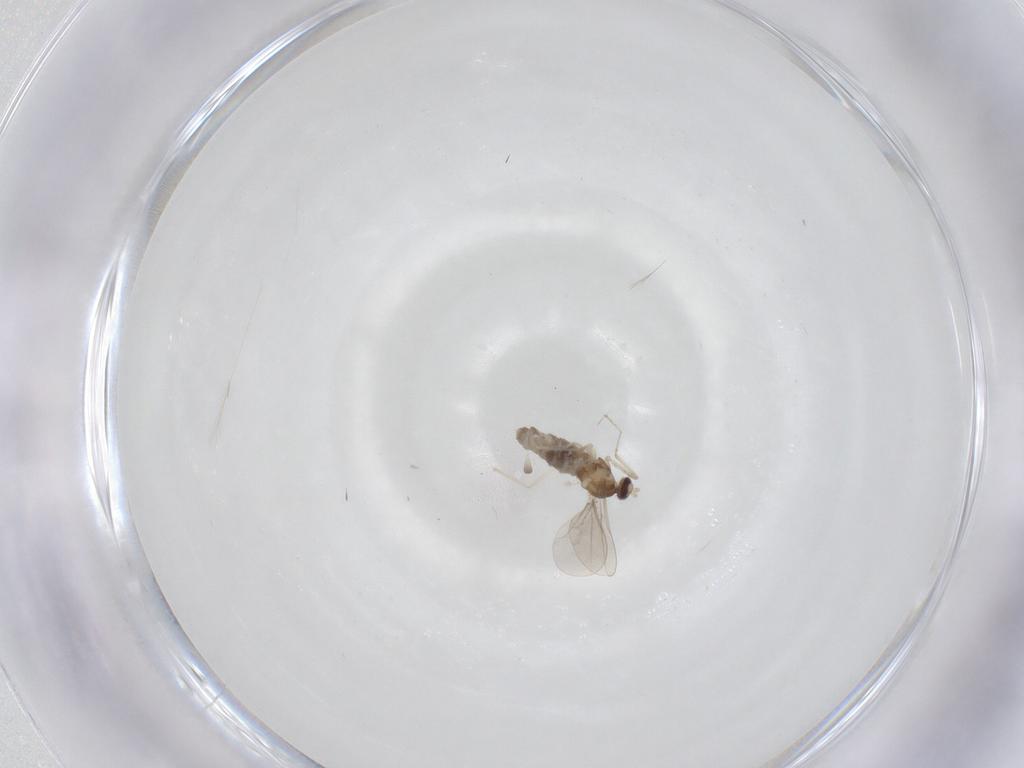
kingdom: Animalia
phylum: Arthropoda
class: Insecta
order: Diptera
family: Cecidomyiidae
